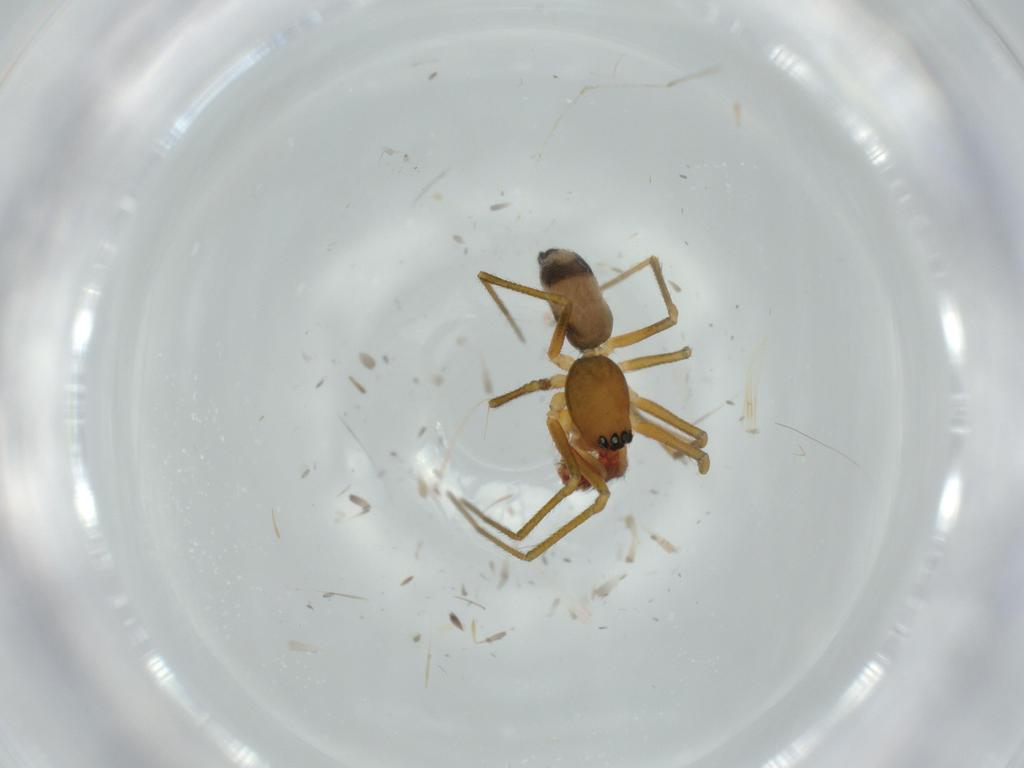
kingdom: Animalia
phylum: Arthropoda
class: Arachnida
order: Araneae
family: Linyphiidae
